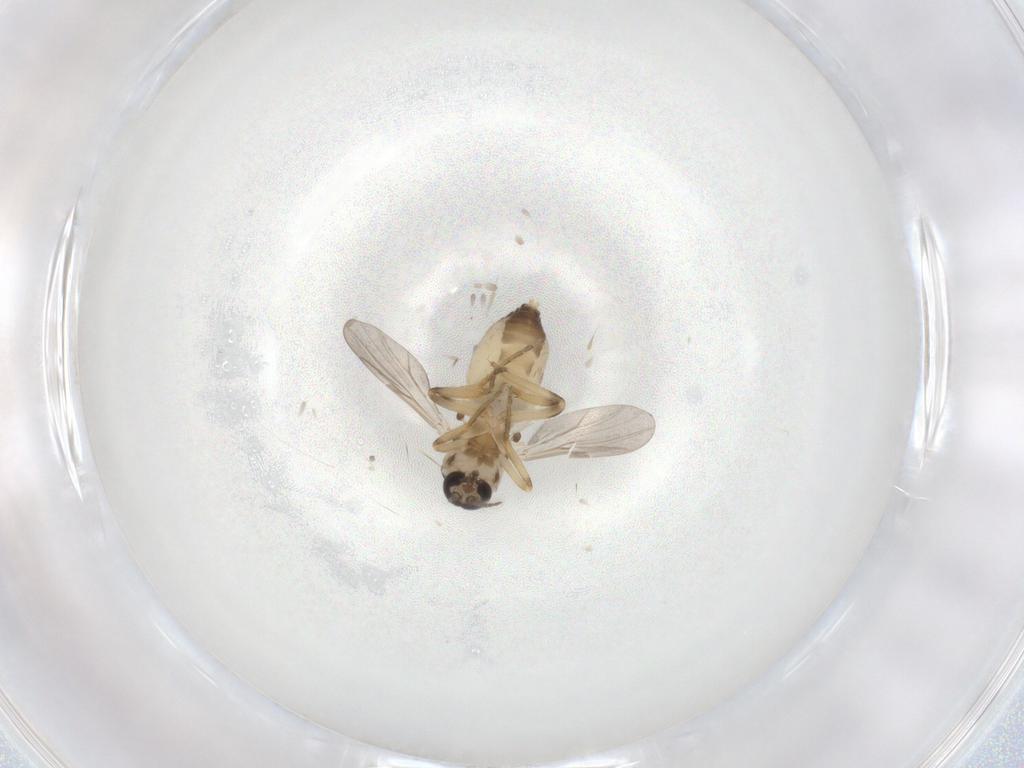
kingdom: Animalia
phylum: Arthropoda
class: Insecta
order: Diptera
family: Ceratopogonidae
